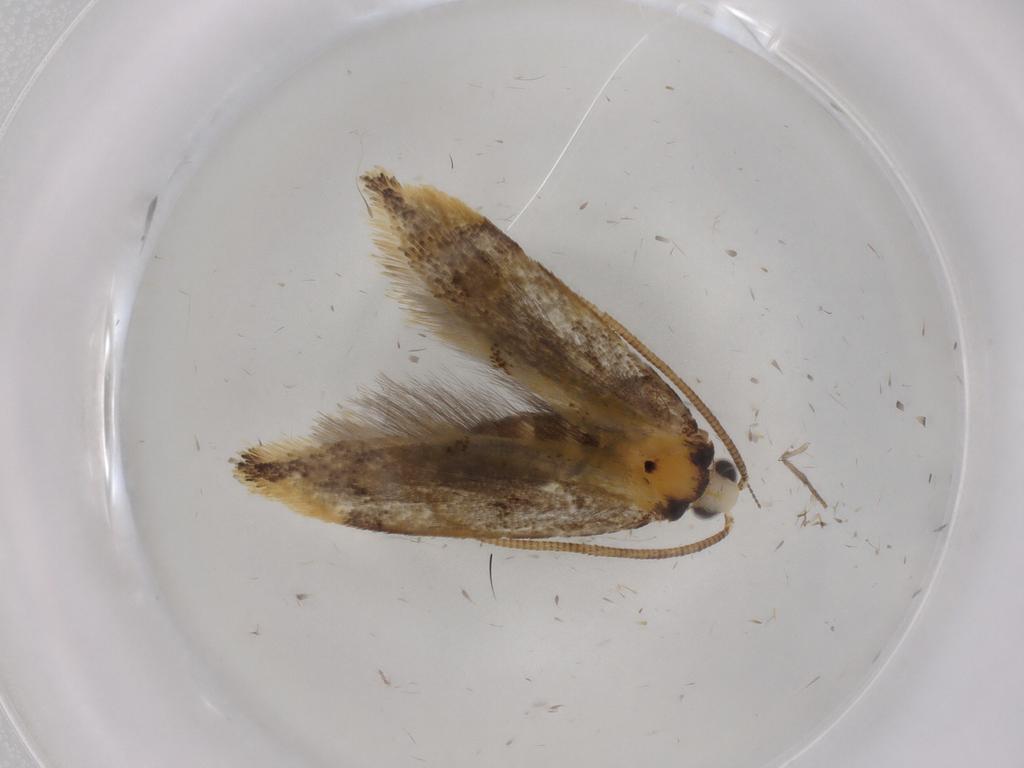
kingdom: Animalia
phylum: Arthropoda
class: Insecta
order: Lepidoptera
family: Tineidae
